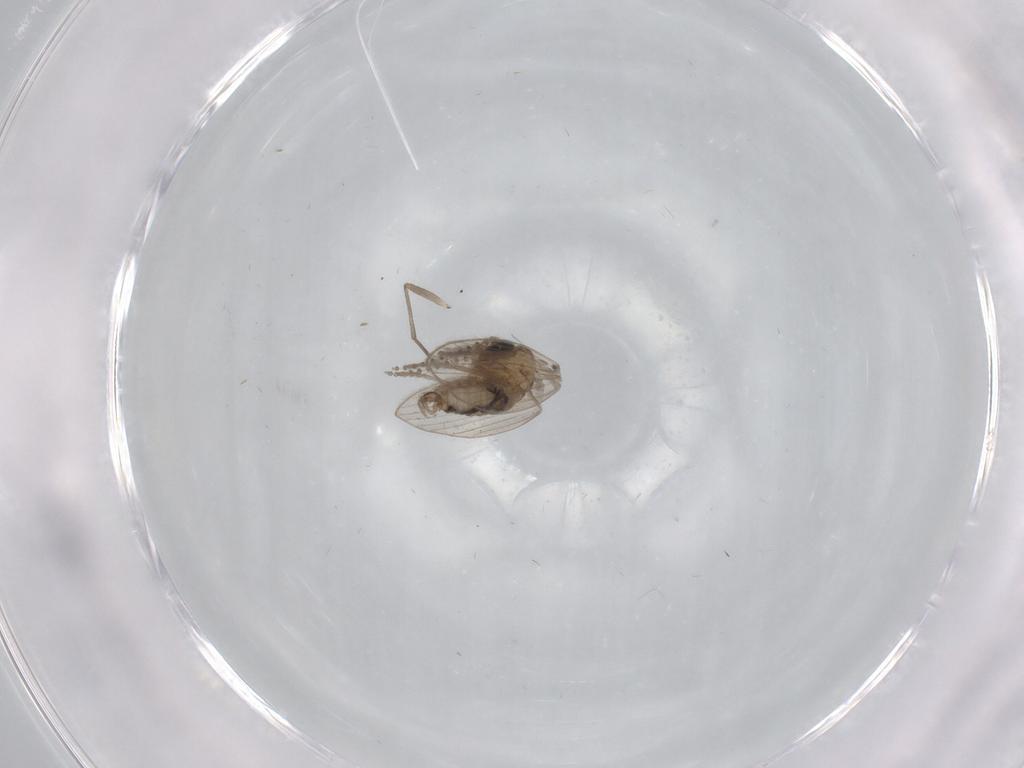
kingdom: Animalia
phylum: Arthropoda
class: Insecta
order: Diptera
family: Psychodidae
